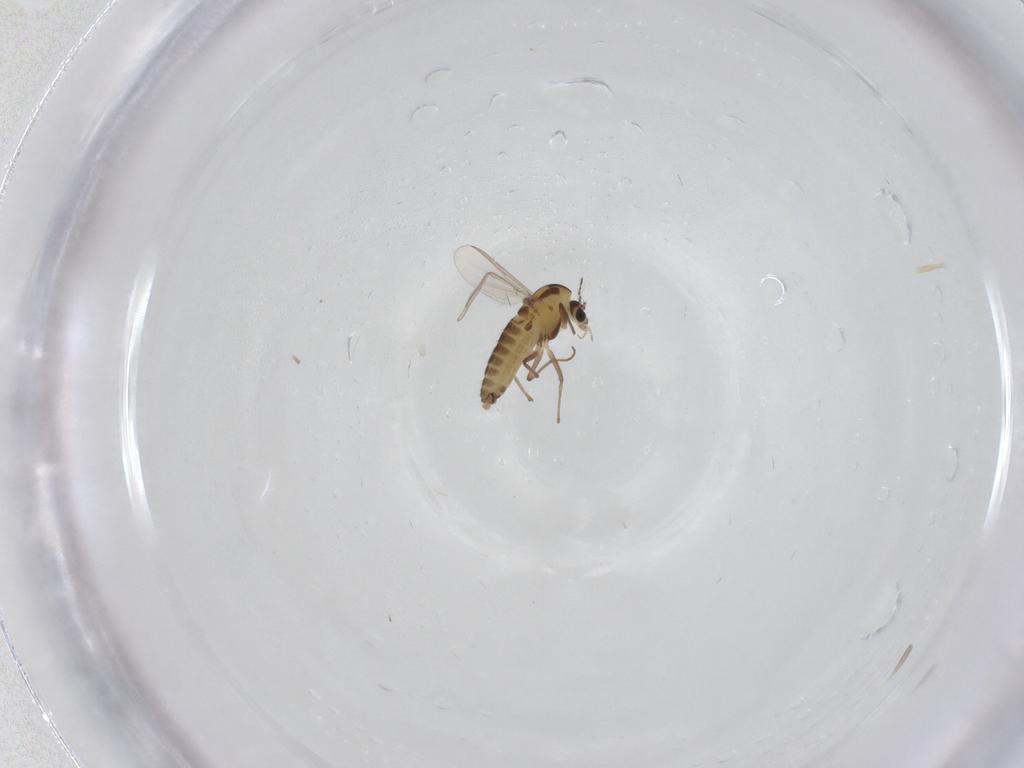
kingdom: Animalia
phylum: Arthropoda
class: Insecta
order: Diptera
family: Chironomidae
